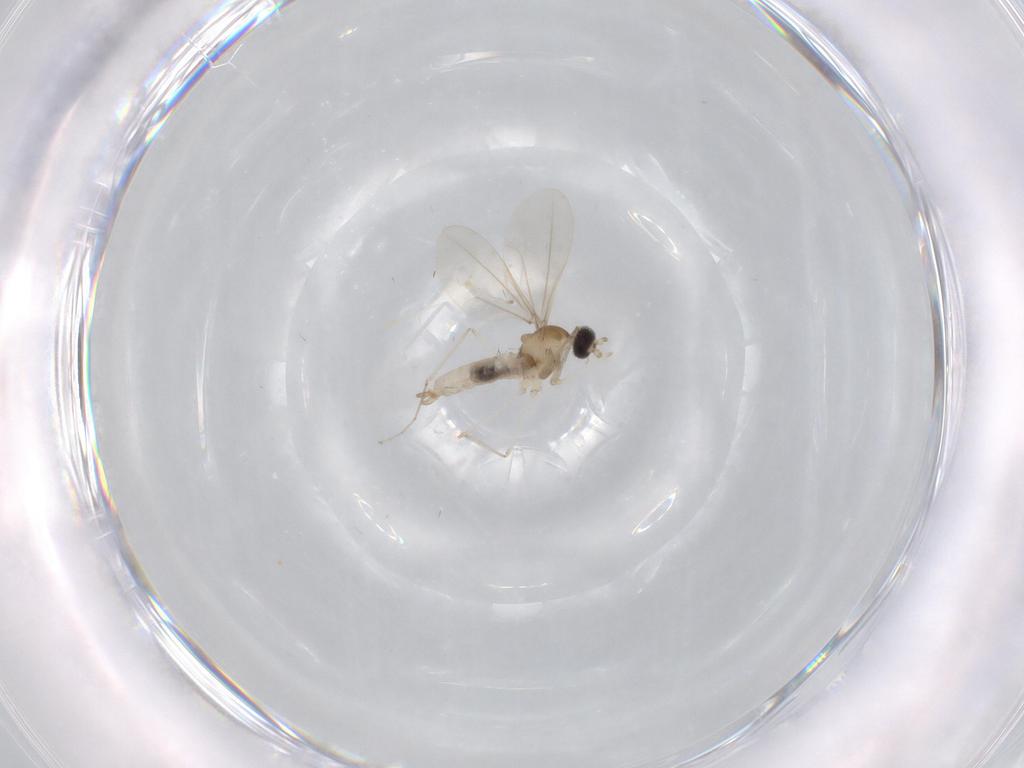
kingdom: Animalia
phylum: Arthropoda
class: Insecta
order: Diptera
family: Cecidomyiidae
